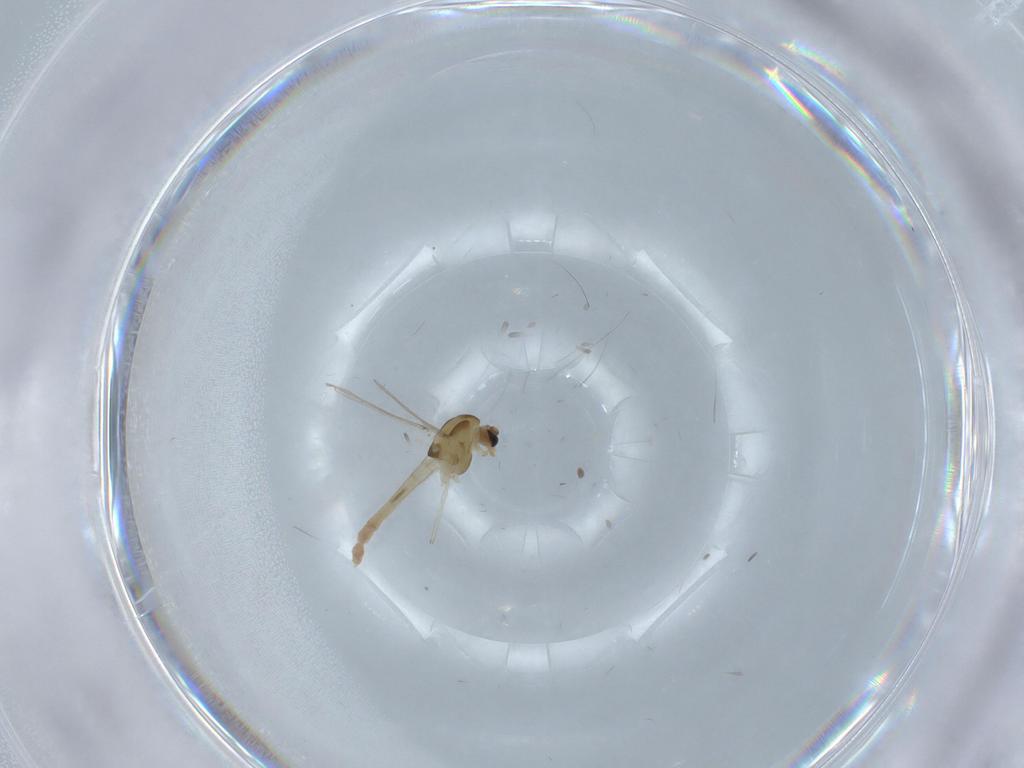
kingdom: Animalia
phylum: Arthropoda
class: Insecta
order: Diptera
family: Chironomidae
